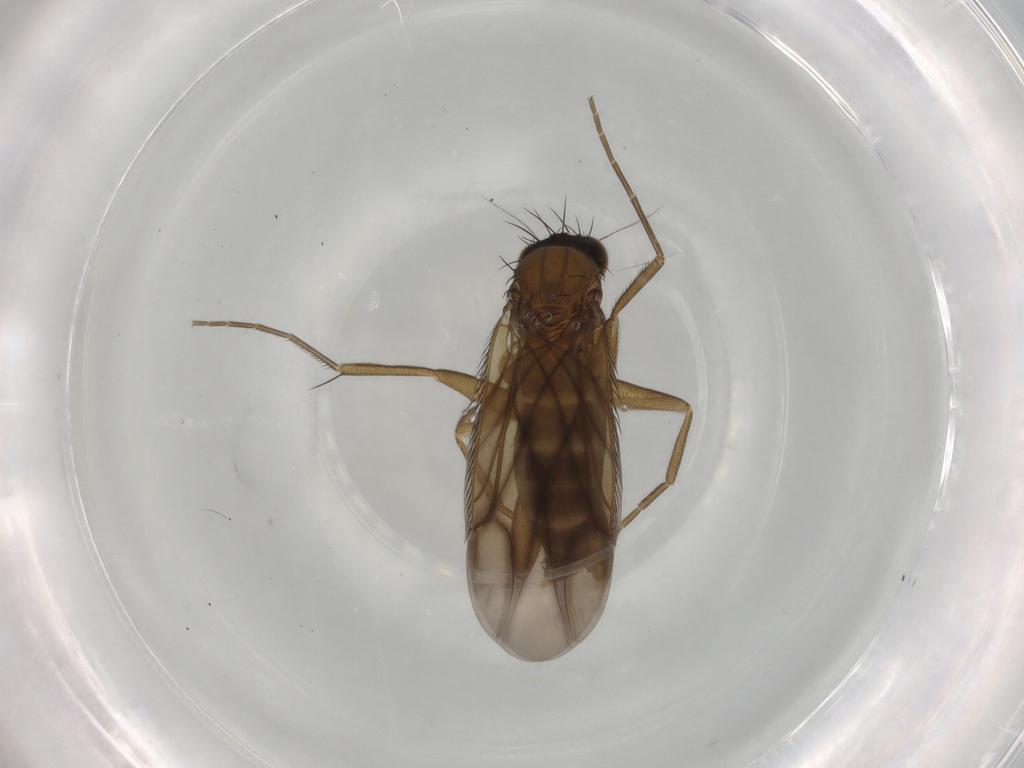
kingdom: Animalia
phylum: Arthropoda
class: Insecta
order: Diptera
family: Phoridae
